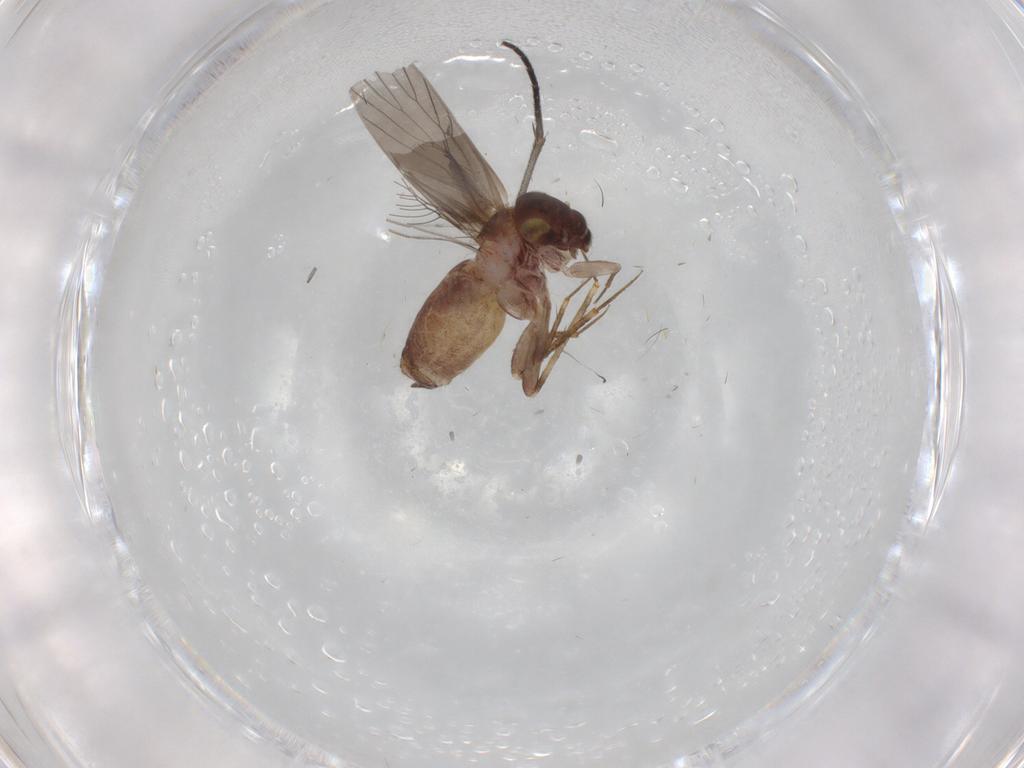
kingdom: Animalia
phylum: Arthropoda
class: Insecta
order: Psocodea
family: Lepidopsocidae
